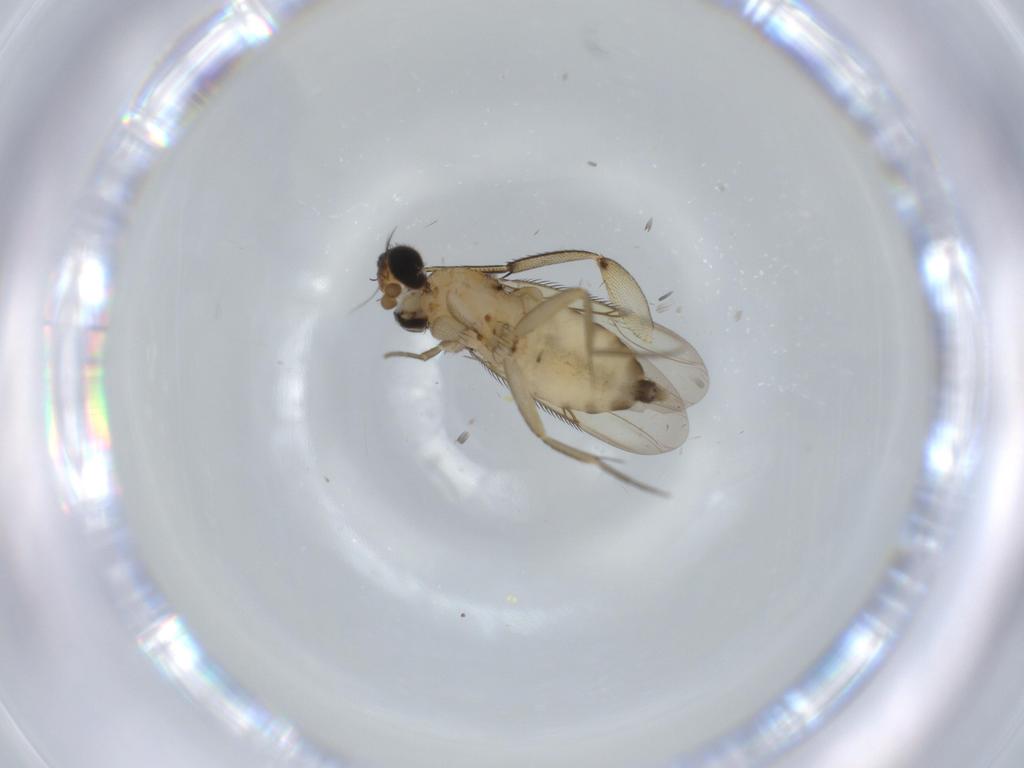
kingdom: Animalia
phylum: Arthropoda
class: Insecta
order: Diptera
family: Phoridae
